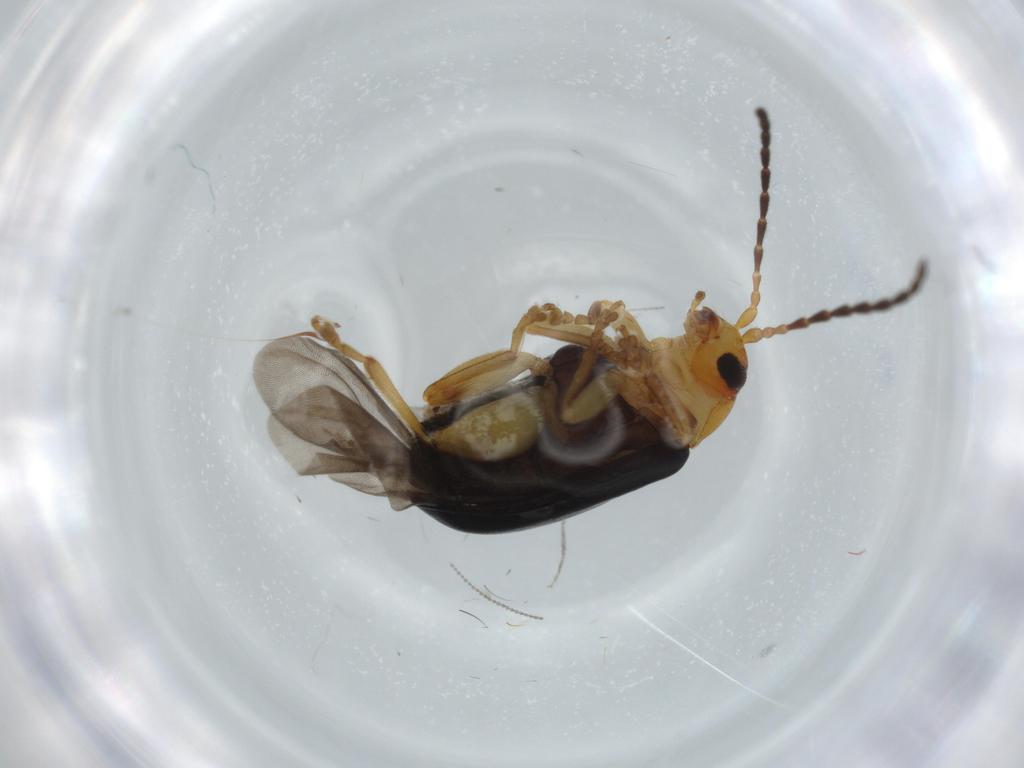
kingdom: Animalia
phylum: Arthropoda
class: Insecta
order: Coleoptera
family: Chrysomelidae
